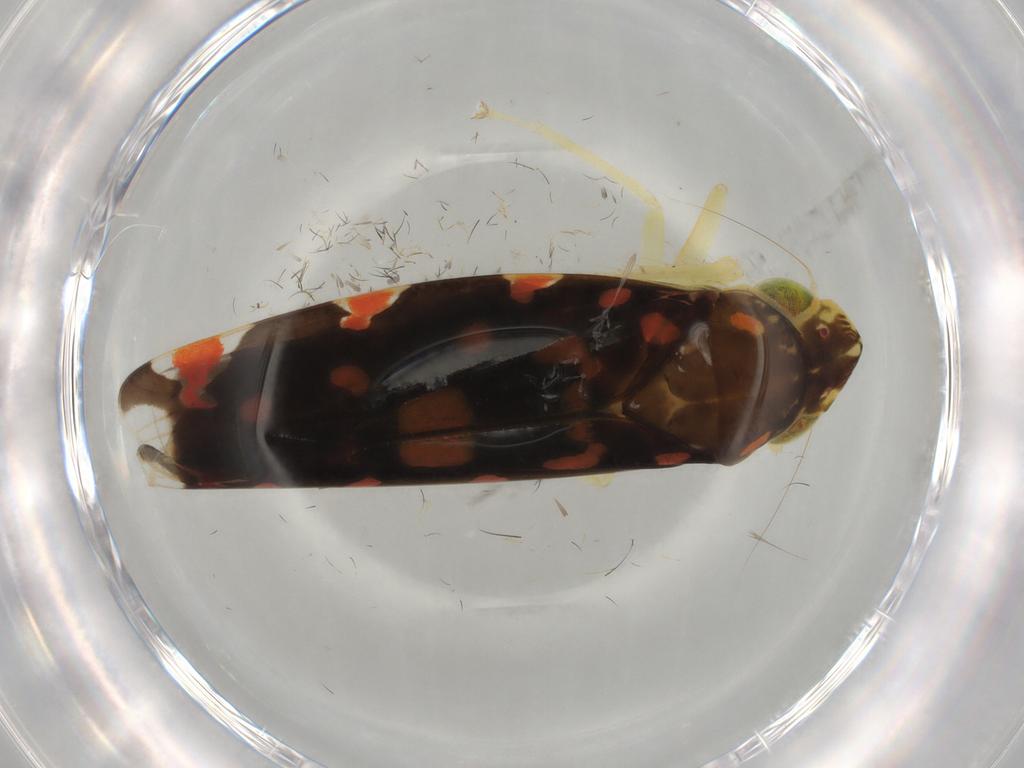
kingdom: Animalia
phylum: Arthropoda
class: Insecta
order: Hemiptera
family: Cicadellidae
